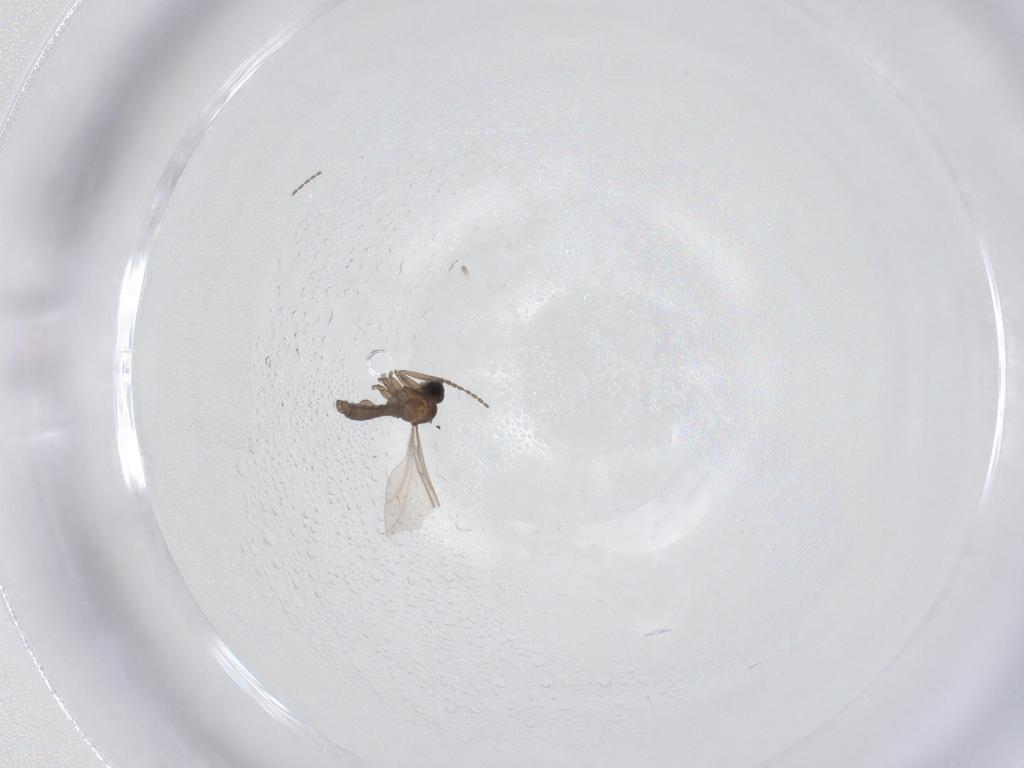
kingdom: Animalia
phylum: Arthropoda
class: Insecta
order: Diptera
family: Sciaridae
